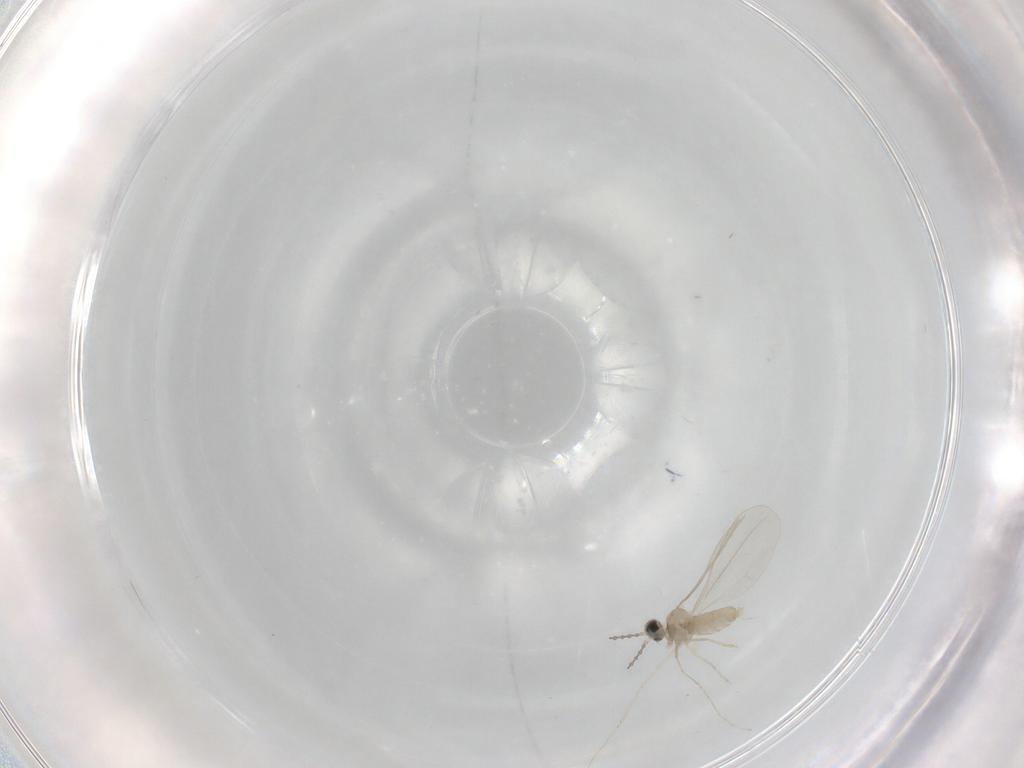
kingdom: Animalia
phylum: Arthropoda
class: Insecta
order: Diptera
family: Cecidomyiidae
